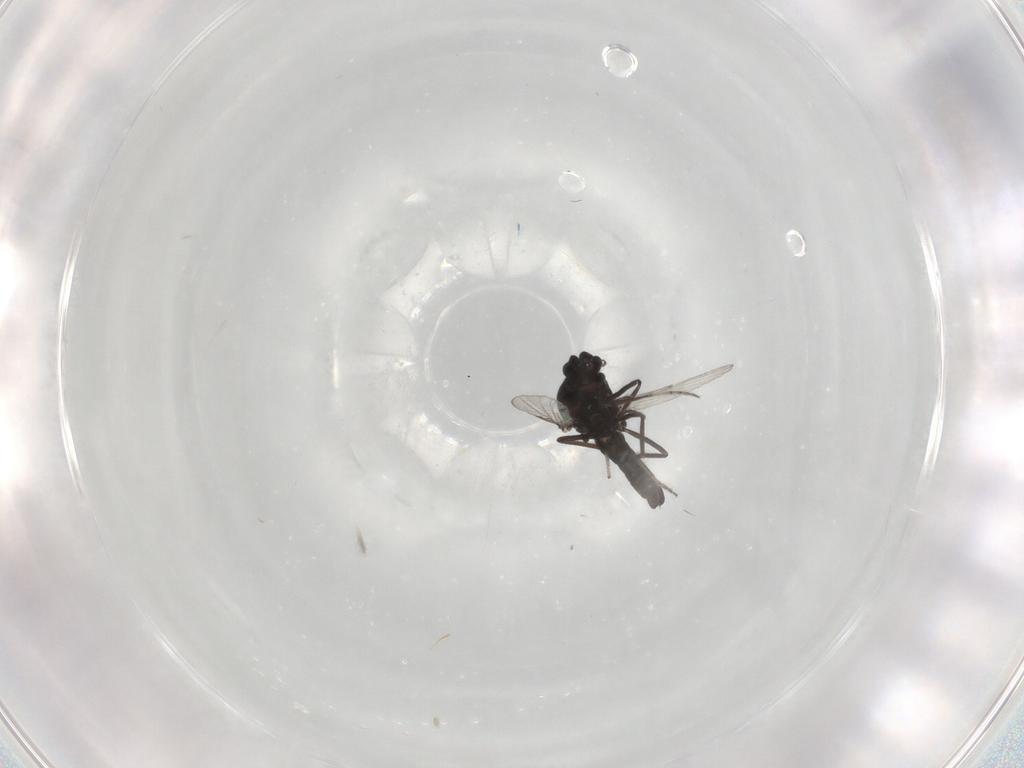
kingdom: Animalia
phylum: Arthropoda
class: Insecta
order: Diptera
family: Ceratopogonidae
